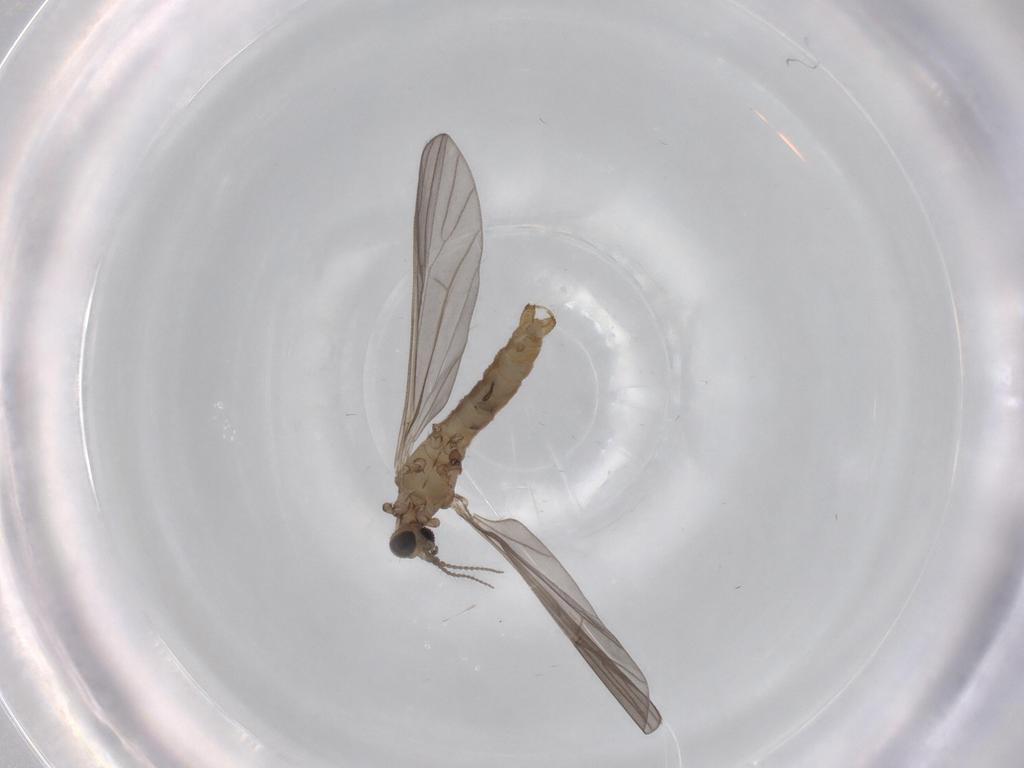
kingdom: Animalia
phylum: Arthropoda
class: Insecta
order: Diptera
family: Limoniidae
